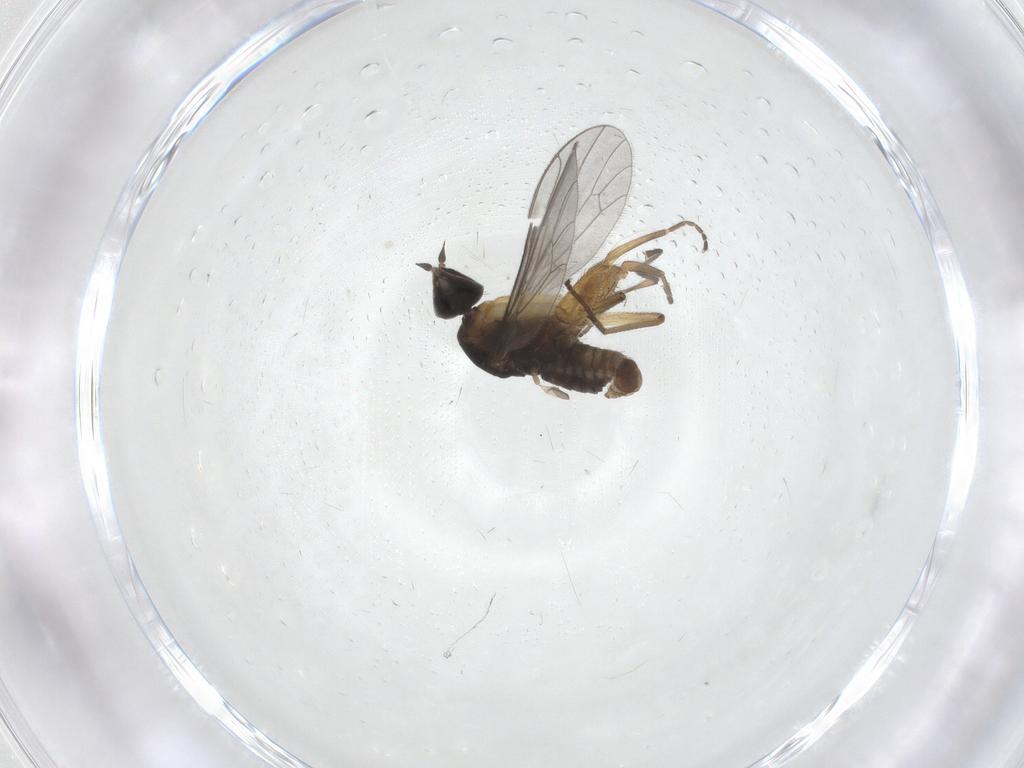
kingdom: Animalia
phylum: Arthropoda
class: Insecta
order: Diptera
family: Empididae
